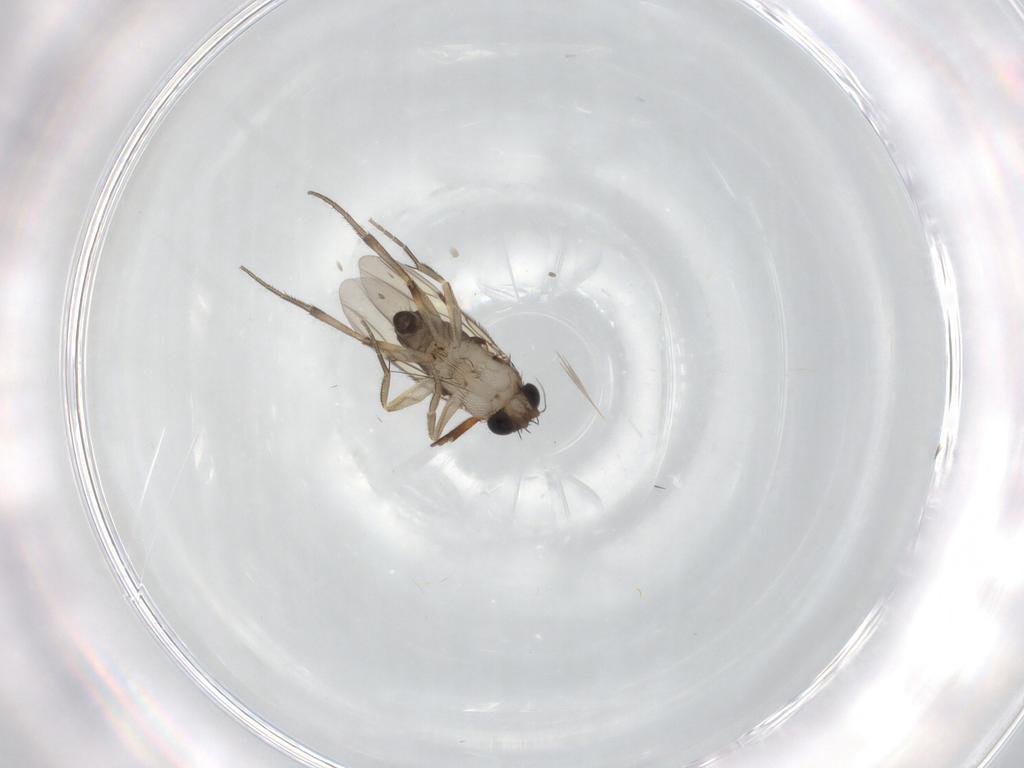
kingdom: Animalia
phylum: Arthropoda
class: Insecta
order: Diptera
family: Phoridae
